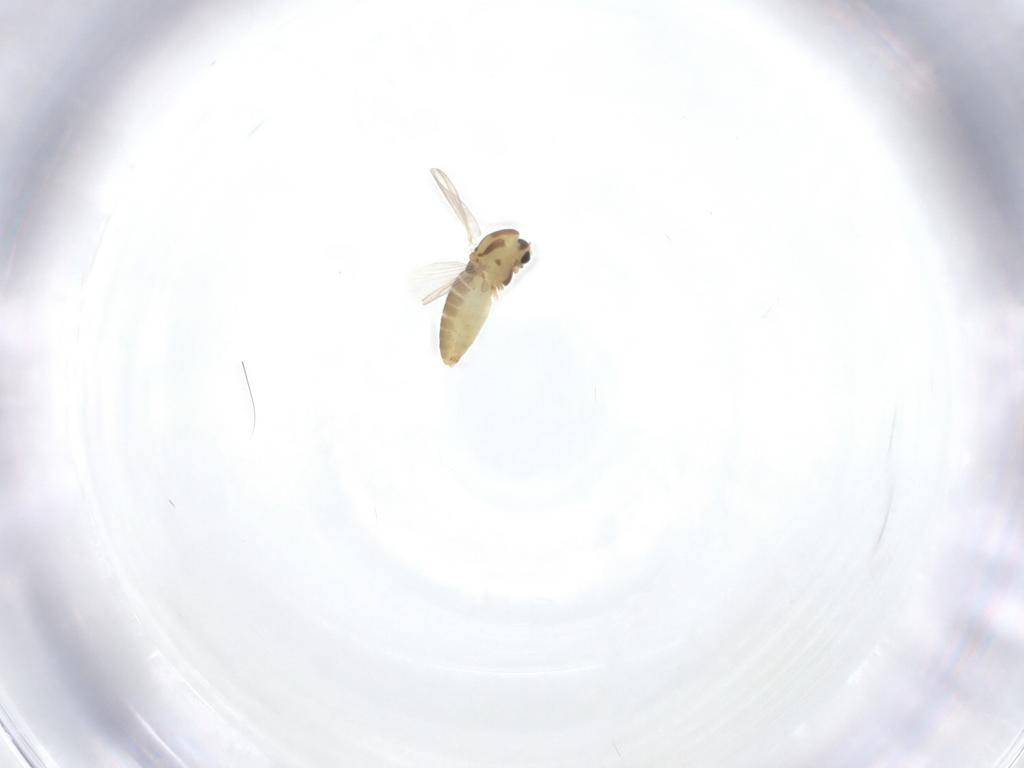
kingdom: Animalia
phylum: Arthropoda
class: Insecta
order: Diptera
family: Chironomidae
